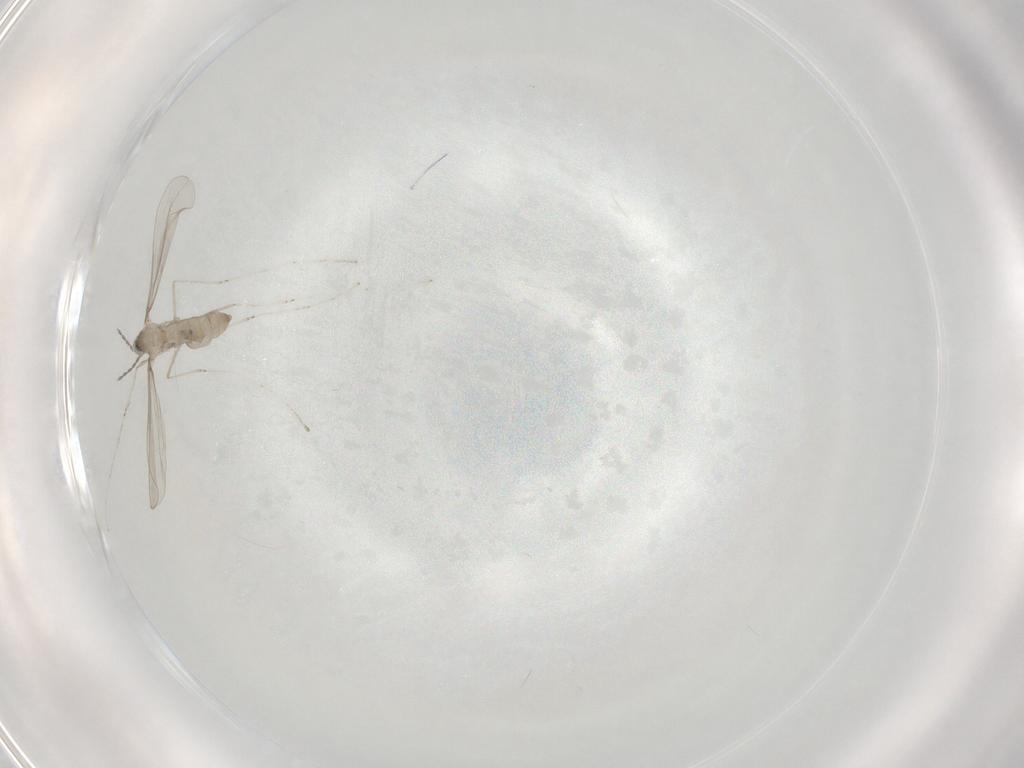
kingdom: Animalia
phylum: Arthropoda
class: Insecta
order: Diptera
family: Cecidomyiidae
